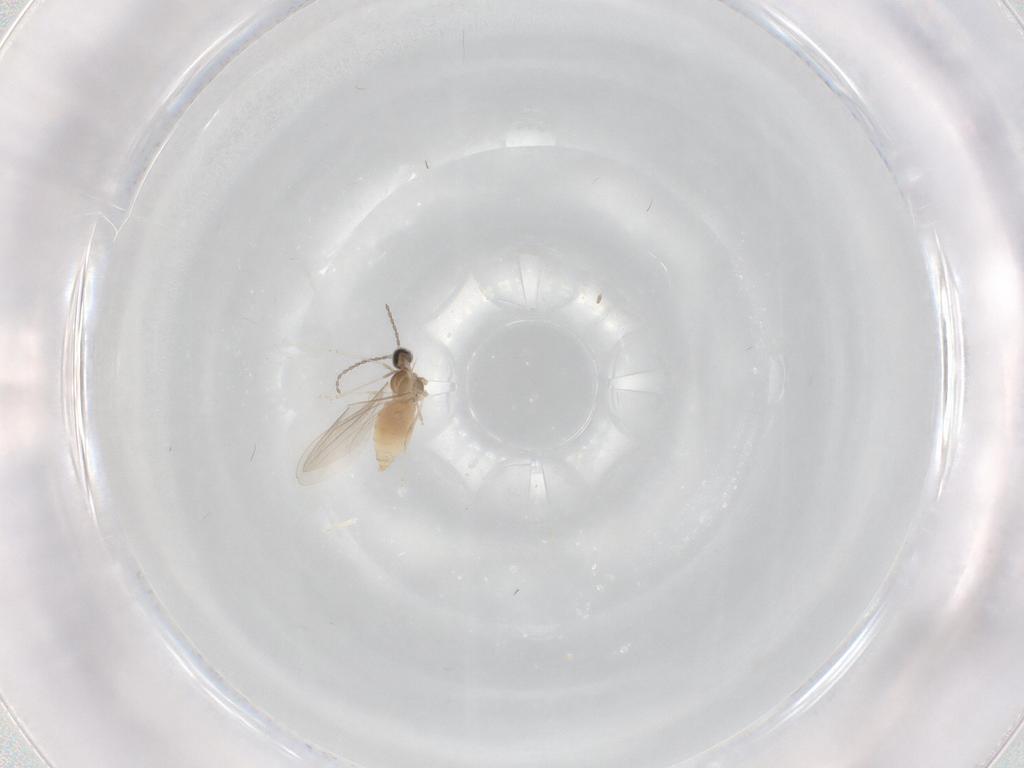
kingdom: Animalia
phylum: Arthropoda
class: Insecta
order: Diptera
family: Cecidomyiidae
